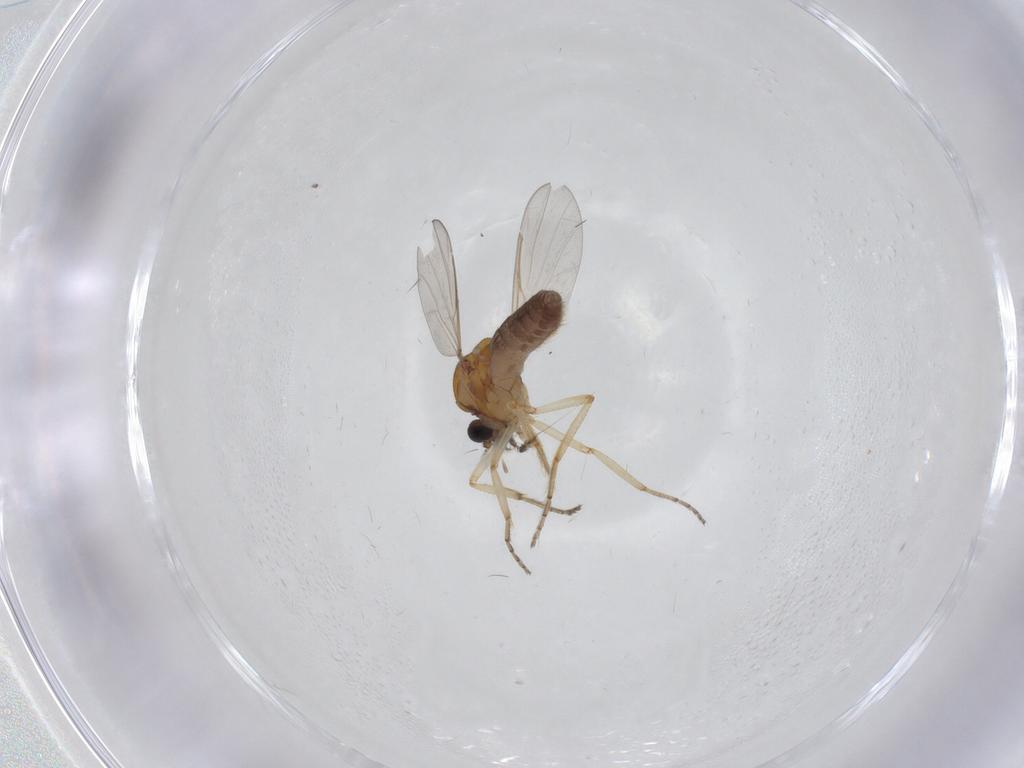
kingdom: Animalia
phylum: Arthropoda
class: Insecta
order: Diptera
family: Ceratopogonidae
